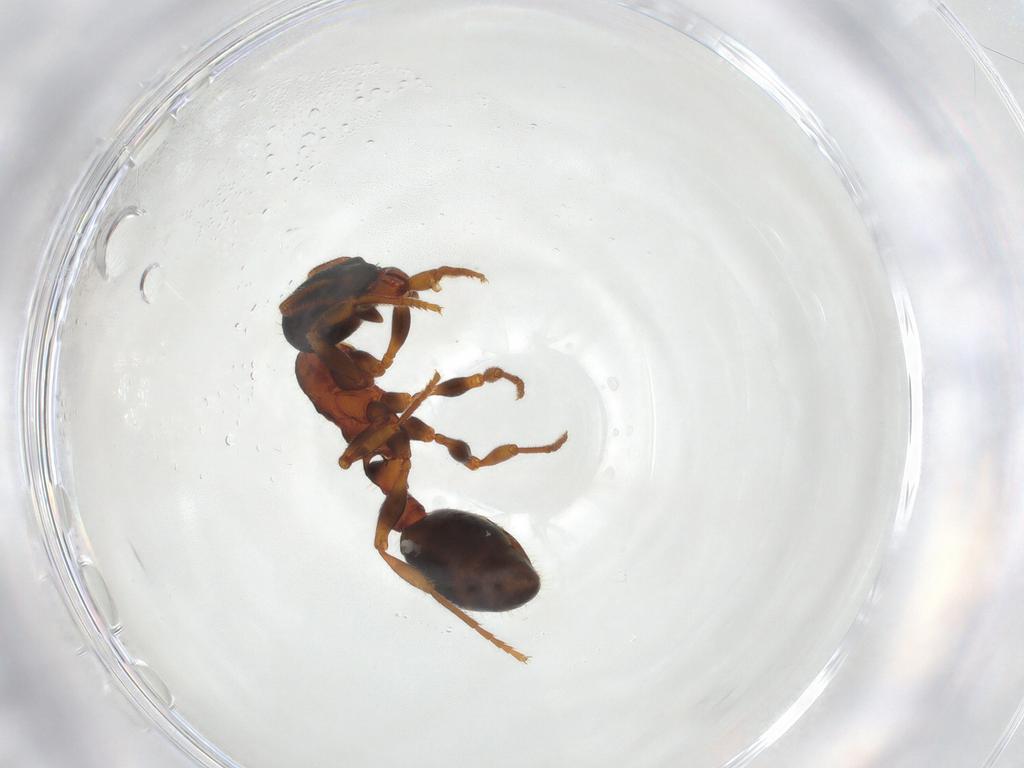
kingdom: Animalia
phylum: Arthropoda
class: Insecta
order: Hymenoptera
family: Formicidae
